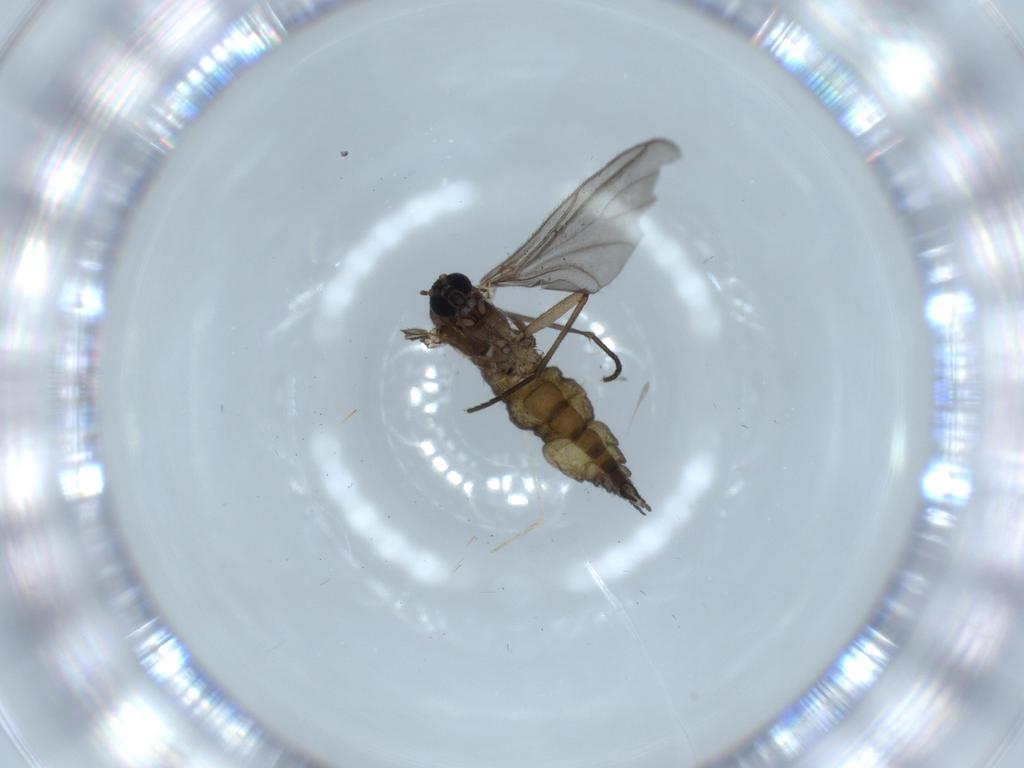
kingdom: Animalia
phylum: Arthropoda
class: Insecta
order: Diptera
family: Sciaridae
